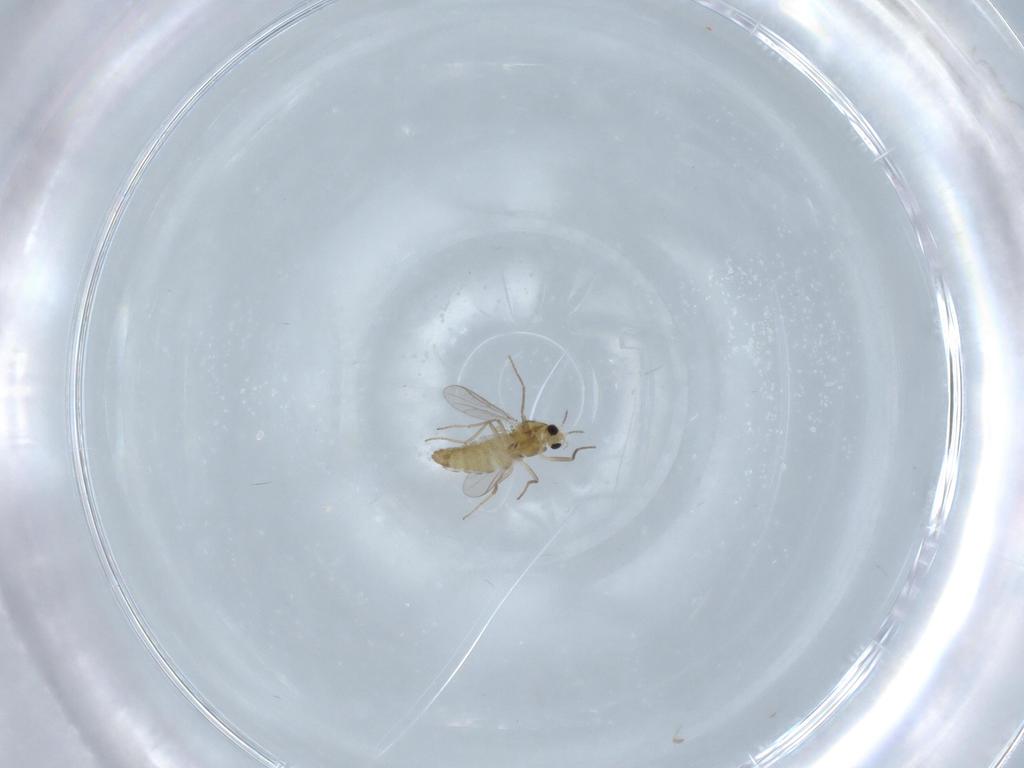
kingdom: Animalia
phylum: Arthropoda
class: Insecta
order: Diptera
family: Chironomidae
